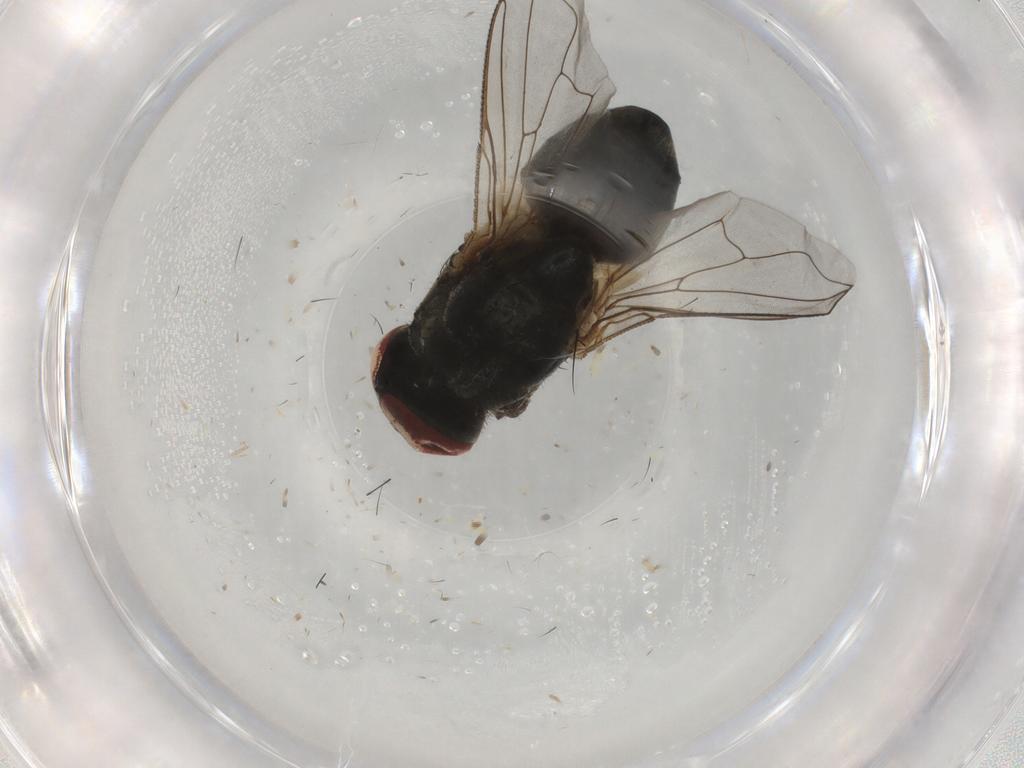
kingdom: Animalia
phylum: Arthropoda
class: Insecta
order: Diptera
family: Muscidae
